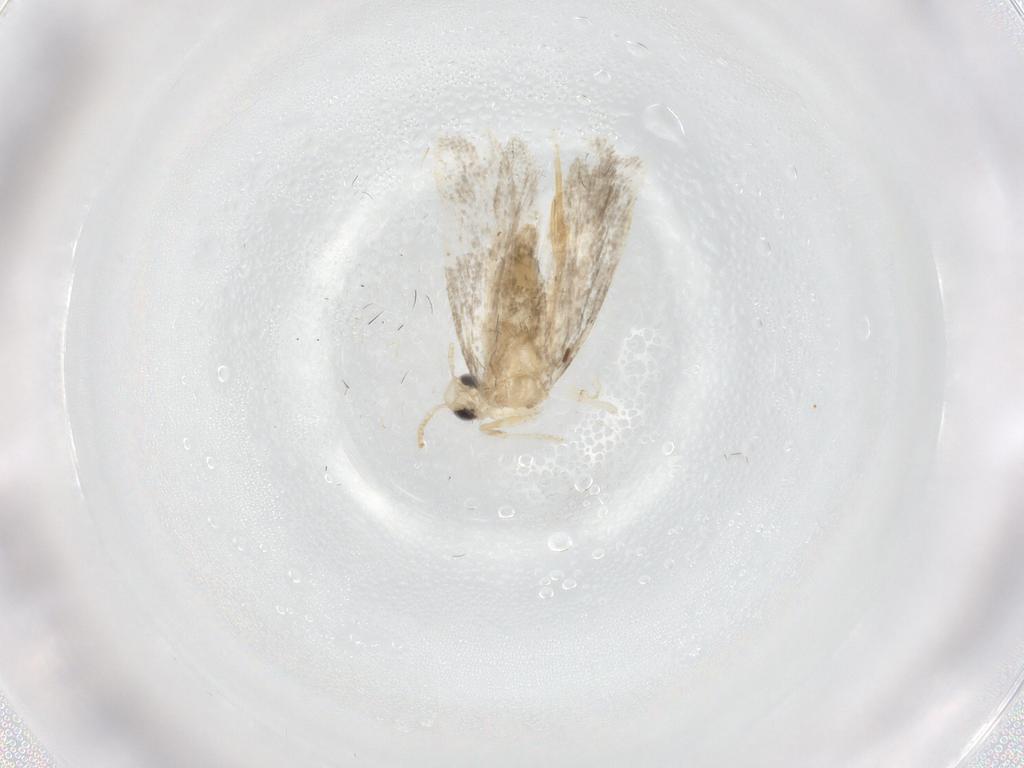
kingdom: Animalia
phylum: Arthropoda
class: Insecta
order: Lepidoptera
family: Psychidae
